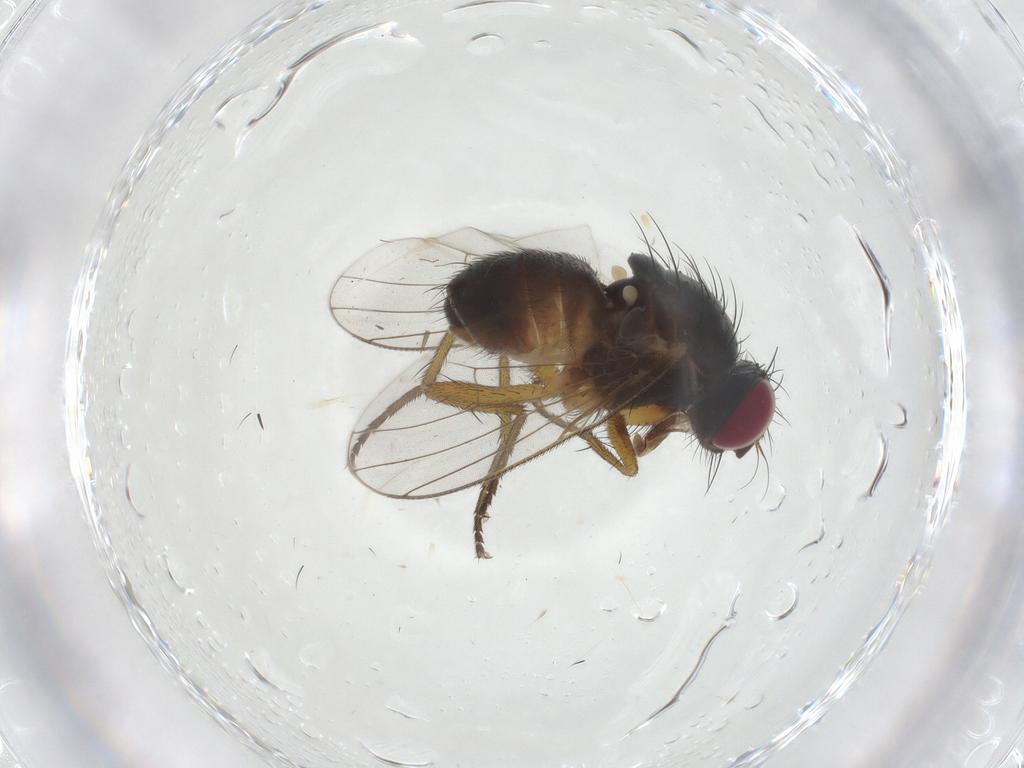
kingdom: Animalia
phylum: Arthropoda
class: Insecta
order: Diptera
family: Muscidae
